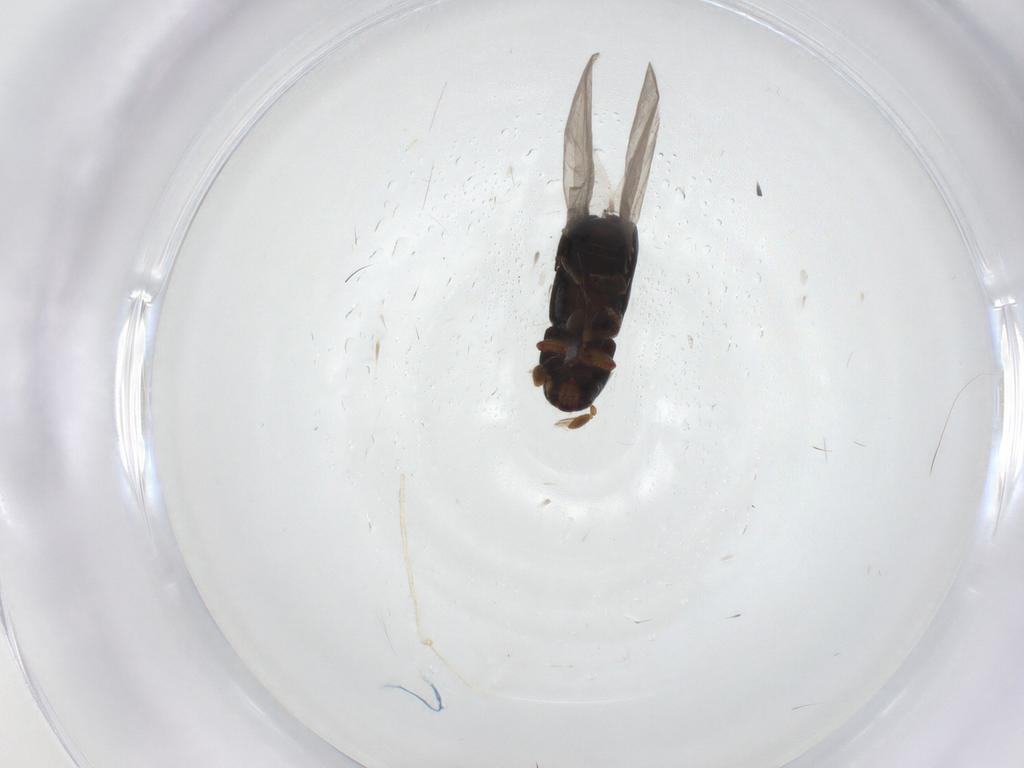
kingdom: Animalia
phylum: Arthropoda
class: Insecta
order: Coleoptera
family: Curculionidae
